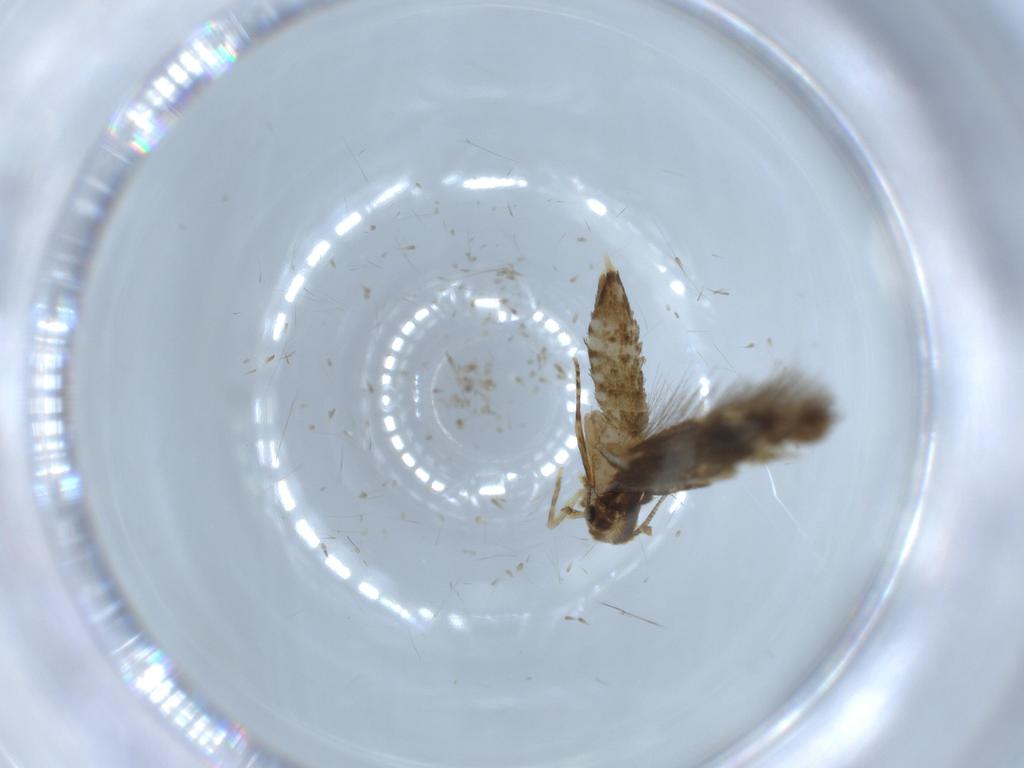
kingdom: Animalia
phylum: Arthropoda
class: Insecta
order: Lepidoptera
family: Tineidae
